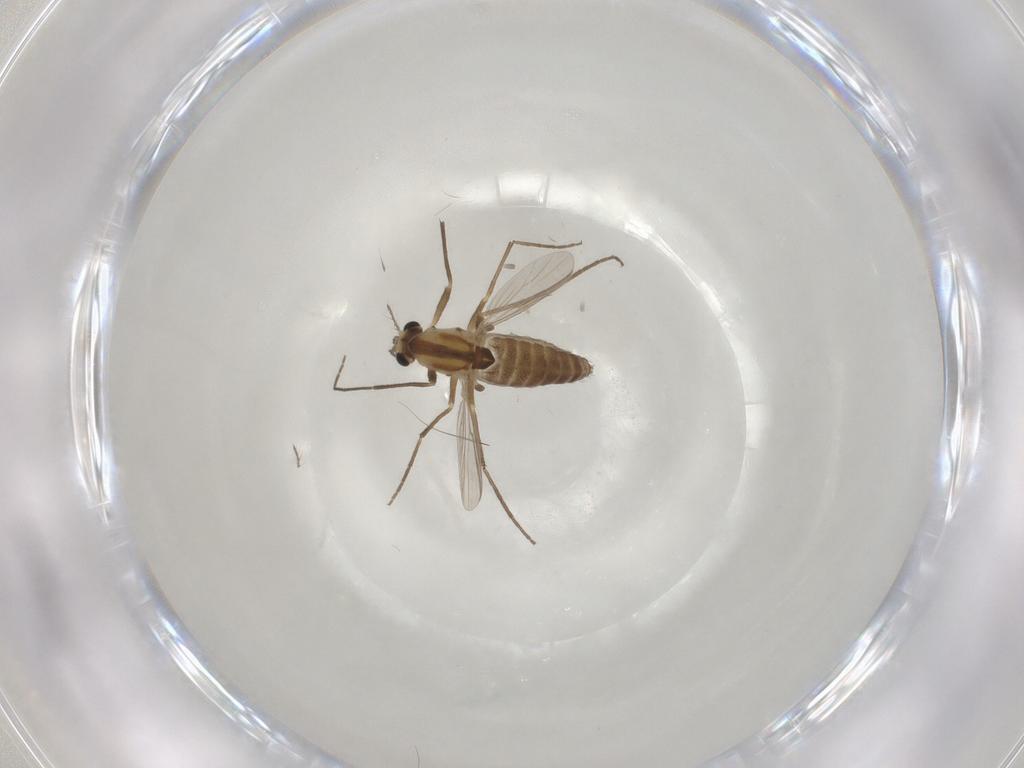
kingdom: Animalia
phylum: Arthropoda
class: Insecta
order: Diptera
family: Chironomidae
